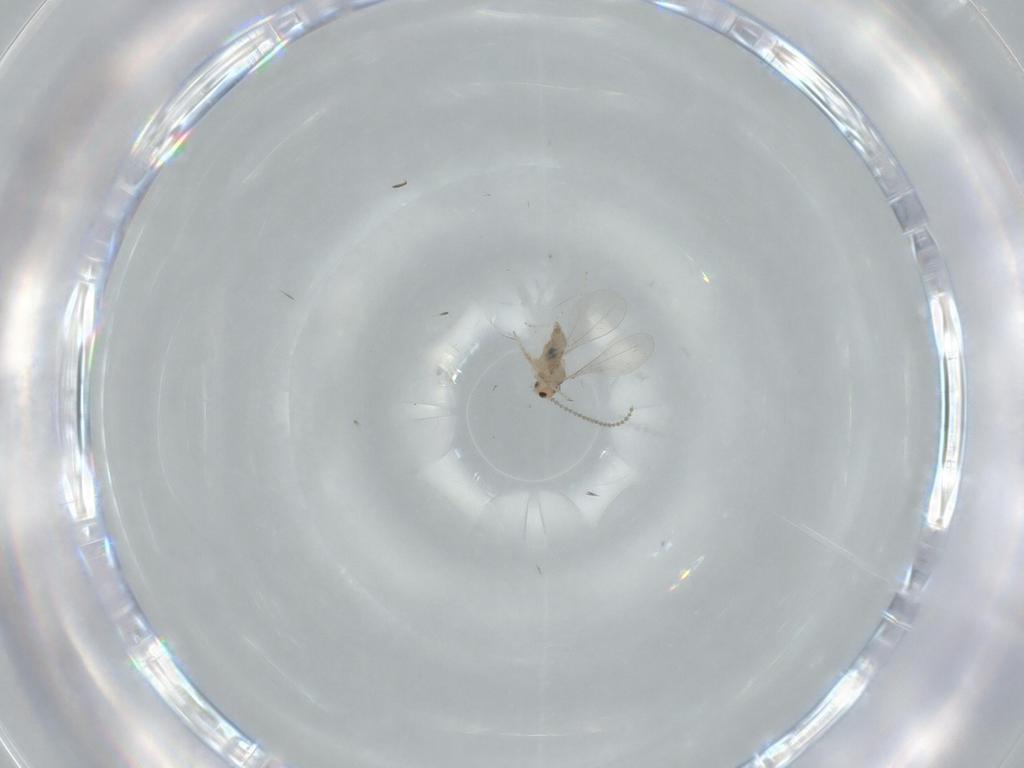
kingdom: Animalia
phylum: Arthropoda
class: Insecta
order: Diptera
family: Cecidomyiidae
